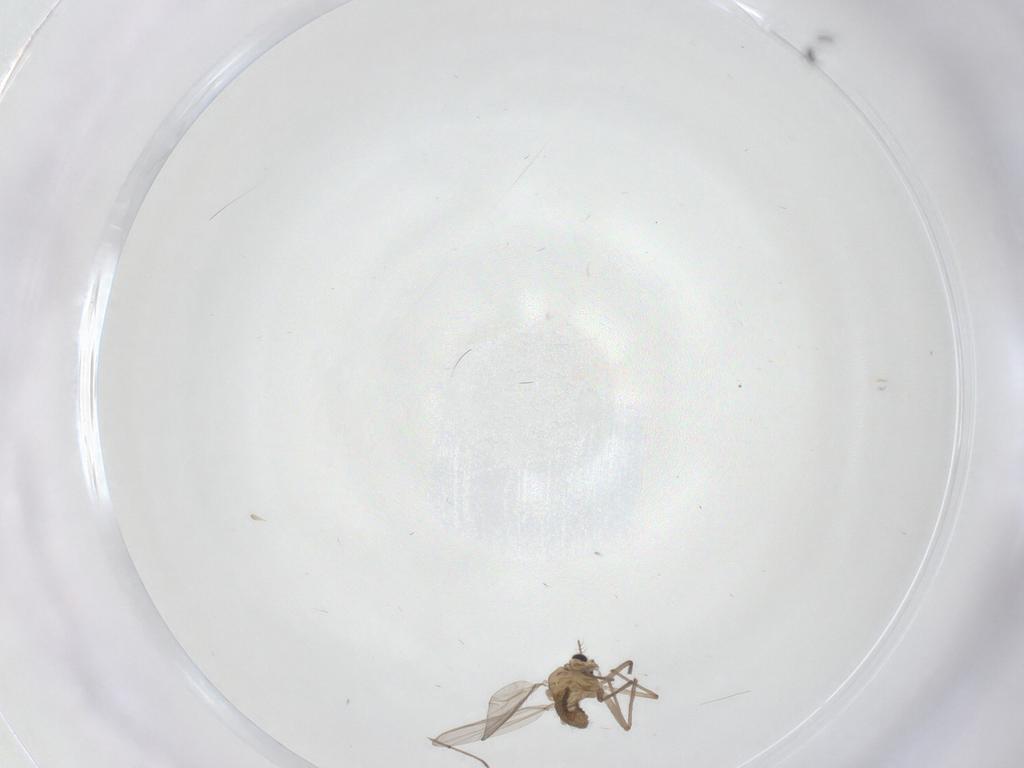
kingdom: Animalia
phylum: Arthropoda
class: Insecta
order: Diptera
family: Chironomidae
